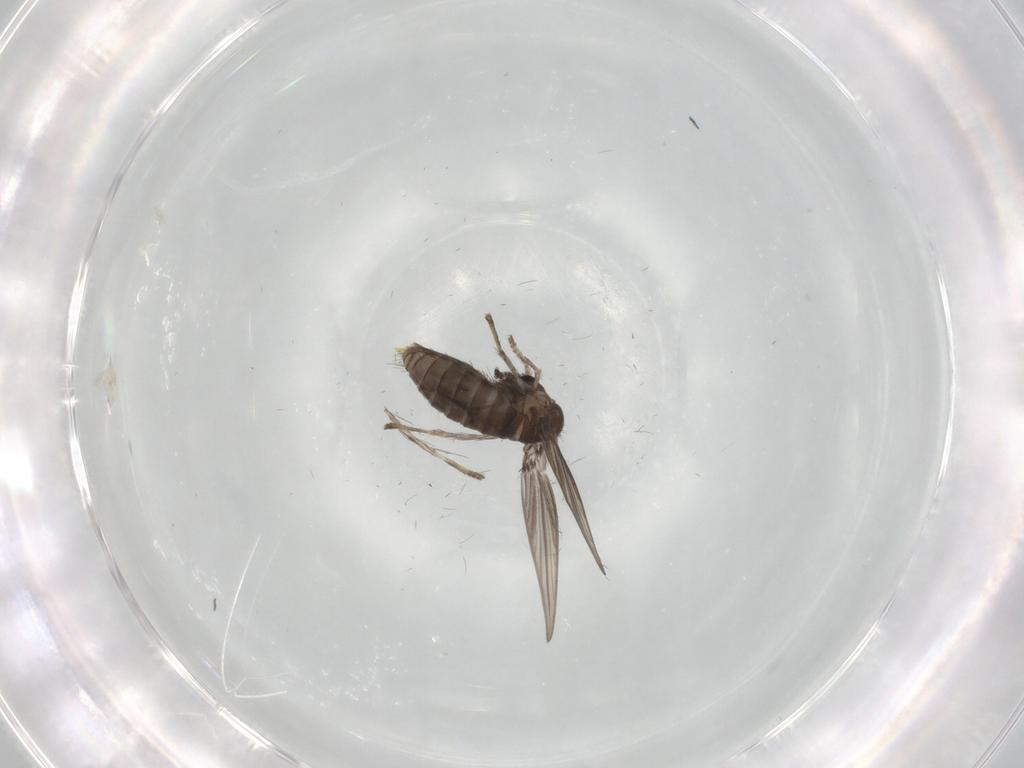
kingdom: Animalia
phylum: Arthropoda
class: Insecta
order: Diptera
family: Psychodidae
